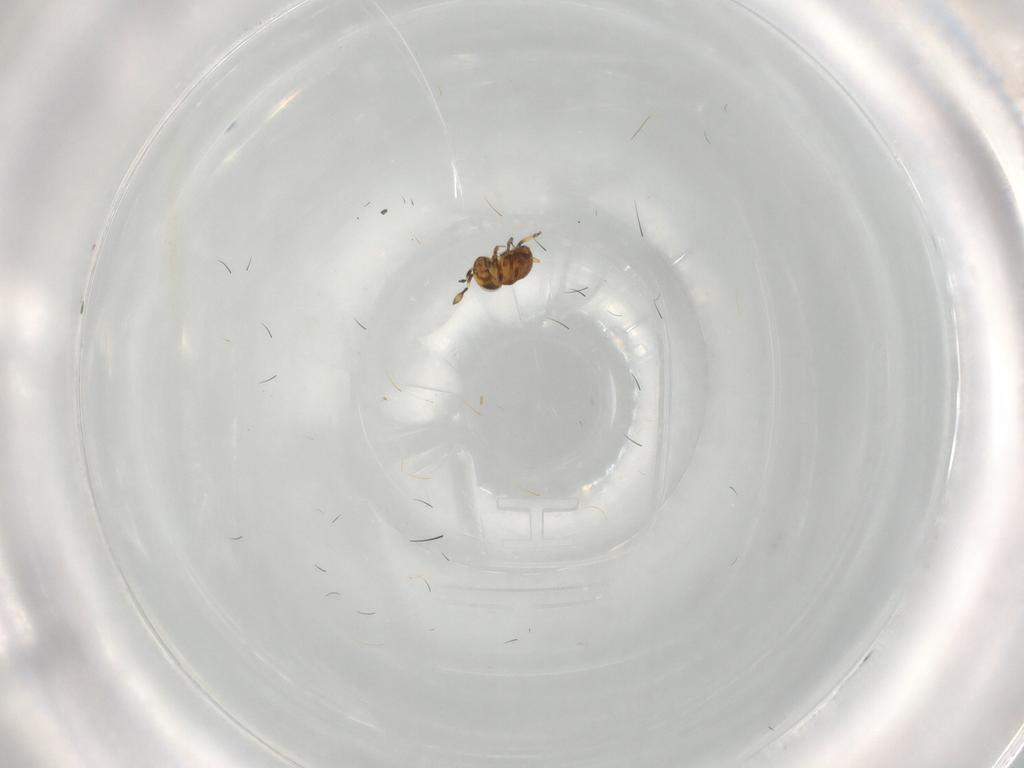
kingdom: Animalia
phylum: Arthropoda
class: Insecta
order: Hymenoptera
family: Scelionidae
